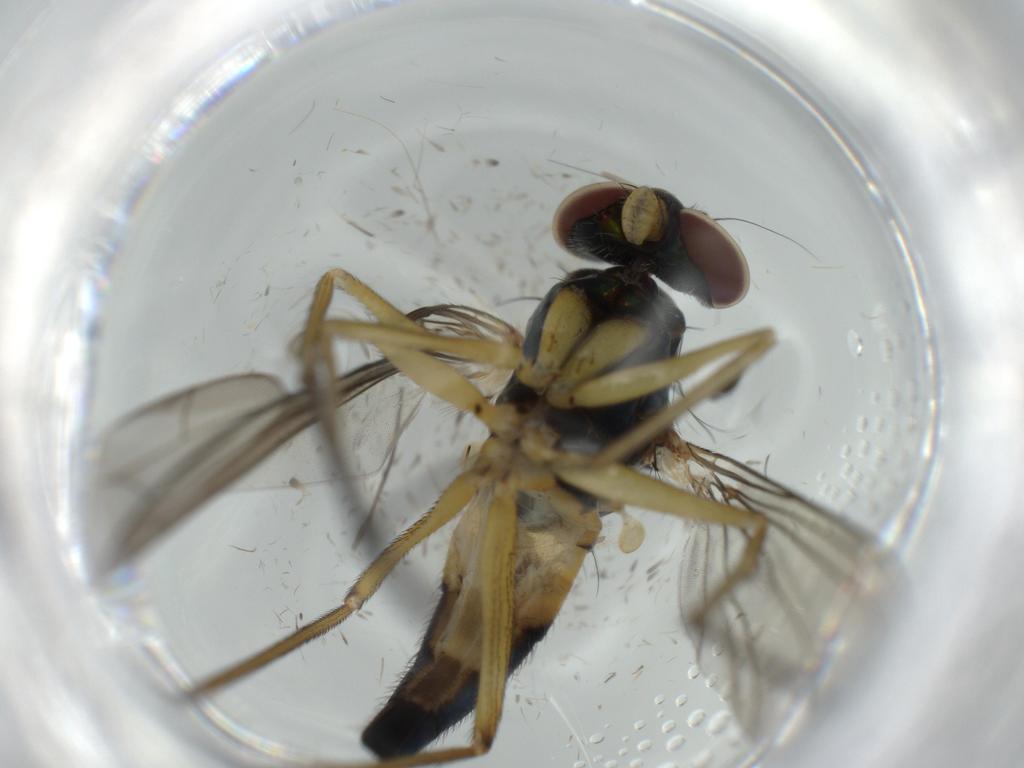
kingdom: Animalia
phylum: Arthropoda
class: Insecta
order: Diptera
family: Dolichopodidae
